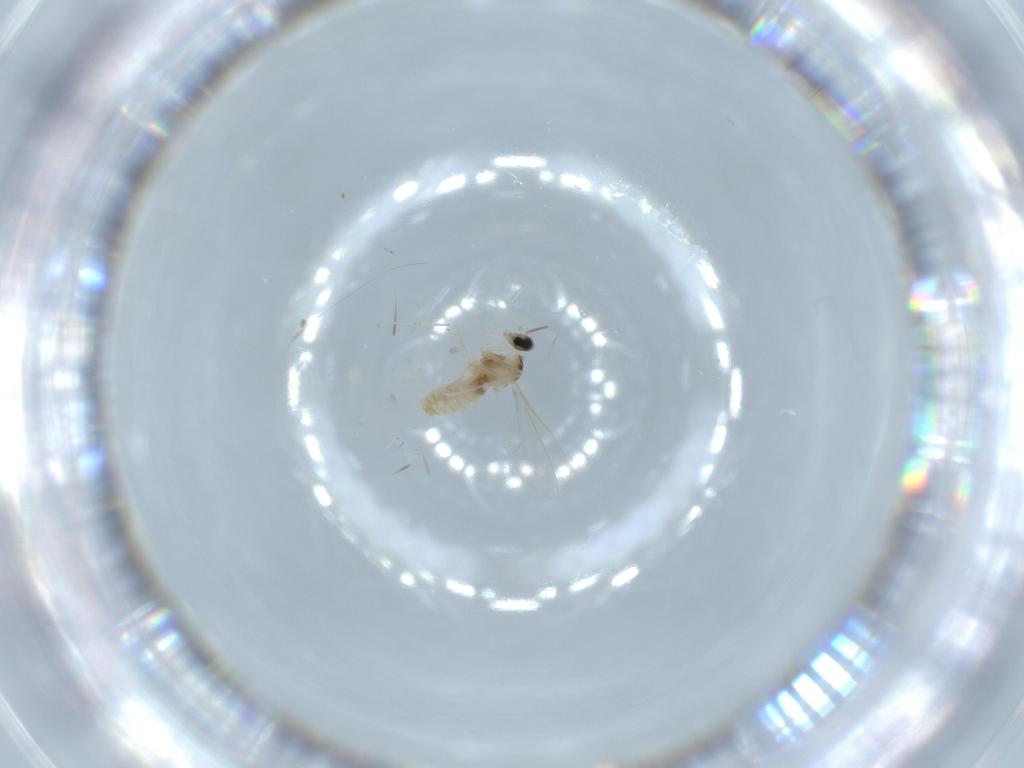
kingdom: Animalia
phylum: Arthropoda
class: Insecta
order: Diptera
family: Cecidomyiidae
